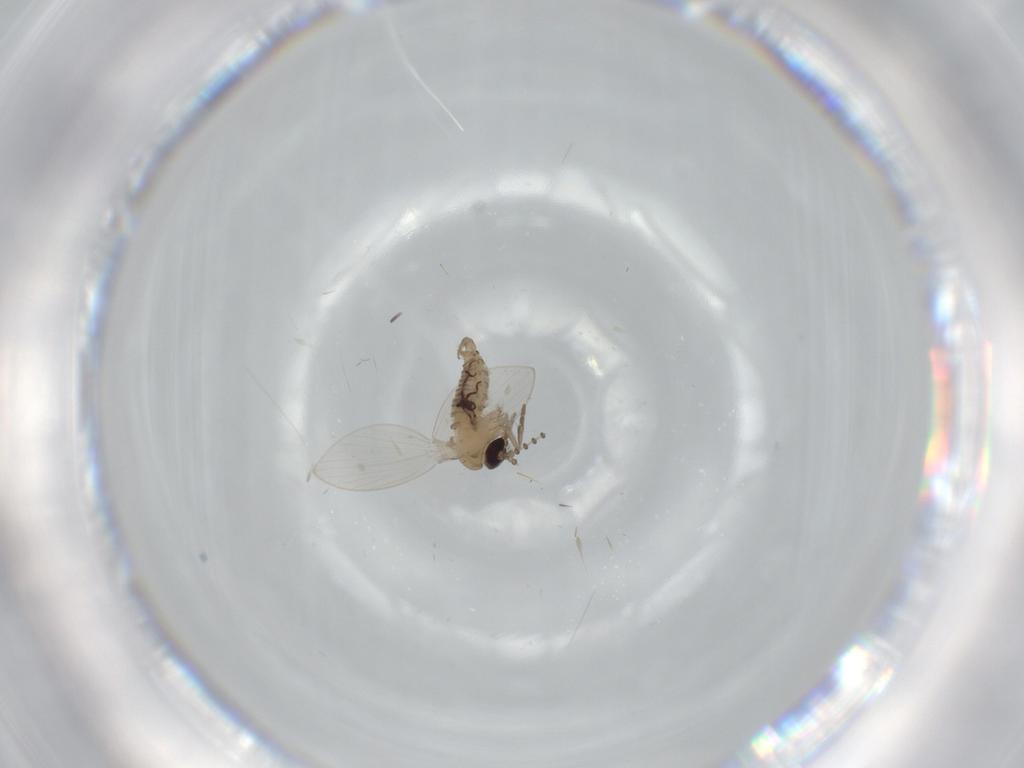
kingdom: Animalia
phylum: Arthropoda
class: Insecta
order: Diptera
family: Psychodidae
